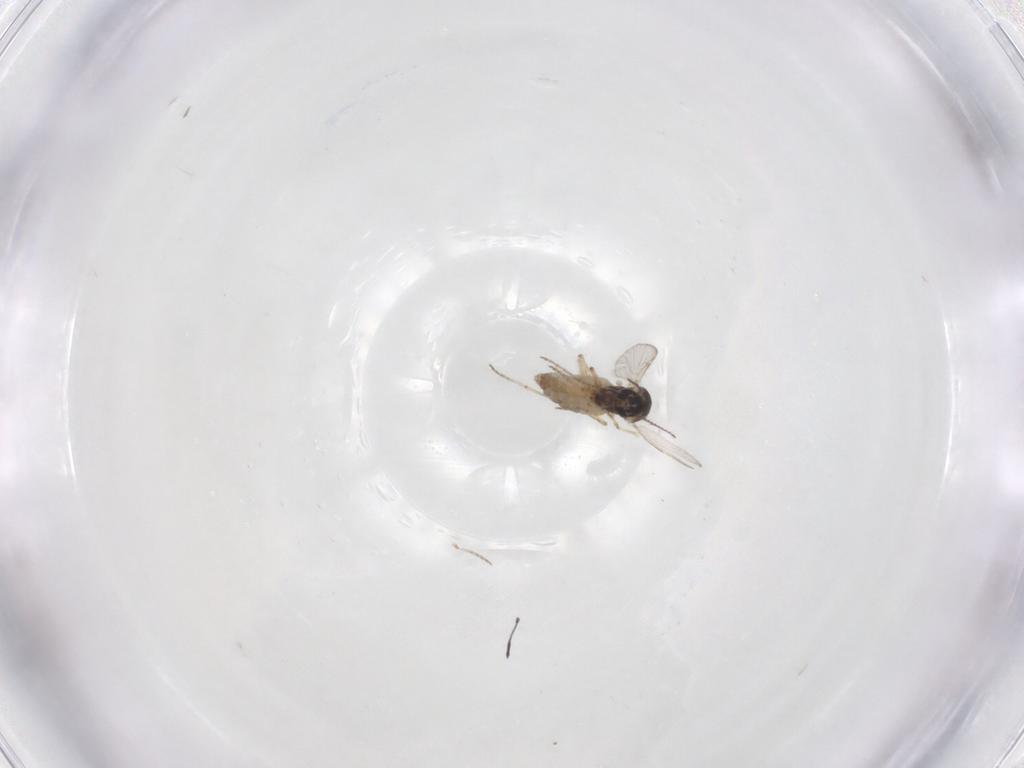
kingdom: Animalia
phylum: Arthropoda
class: Insecta
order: Diptera
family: Ceratopogonidae
